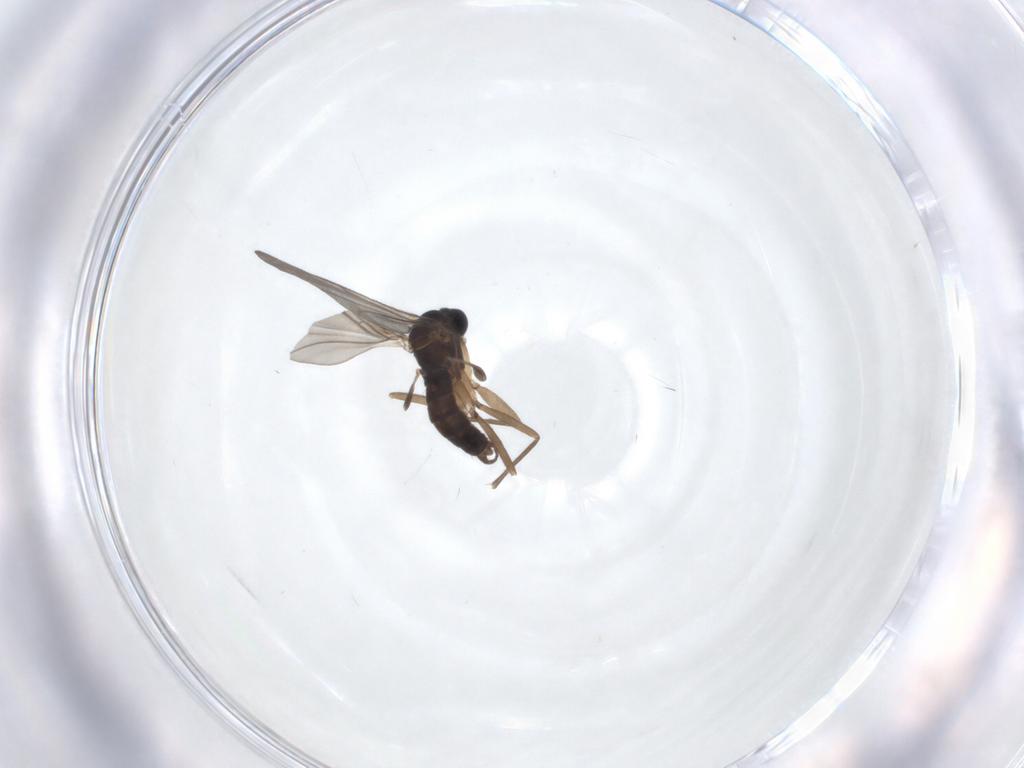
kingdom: Animalia
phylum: Arthropoda
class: Insecta
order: Diptera
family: Sciaridae
